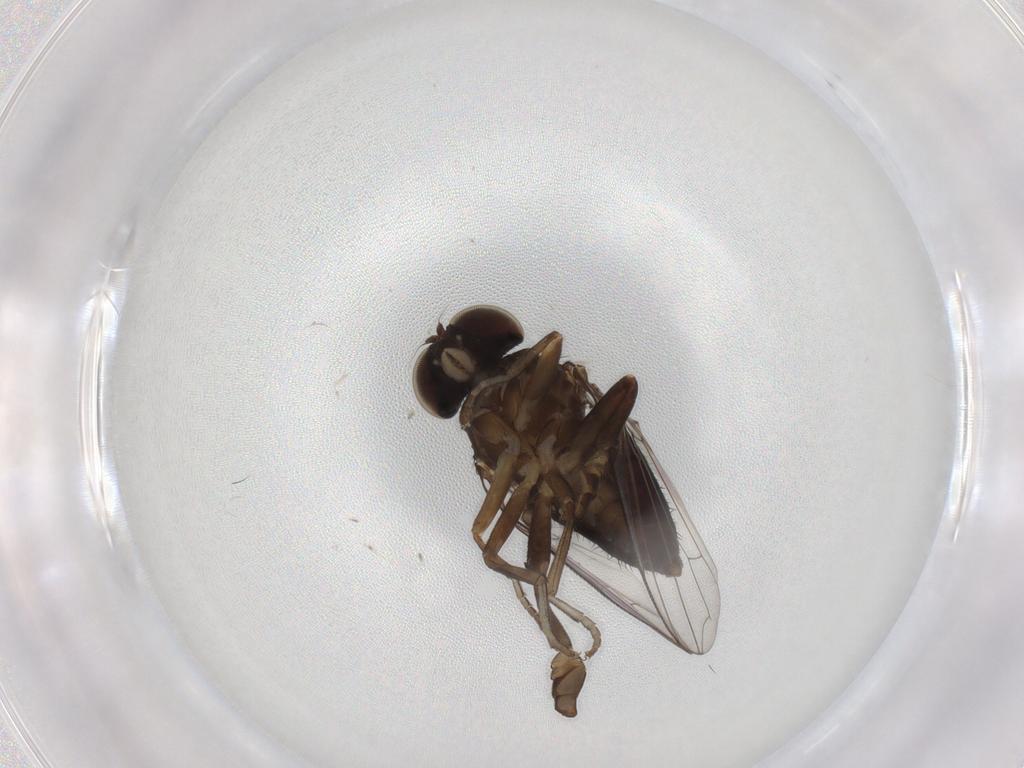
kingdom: Animalia
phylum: Arthropoda
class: Insecta
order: Diptera
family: Platypezidae
